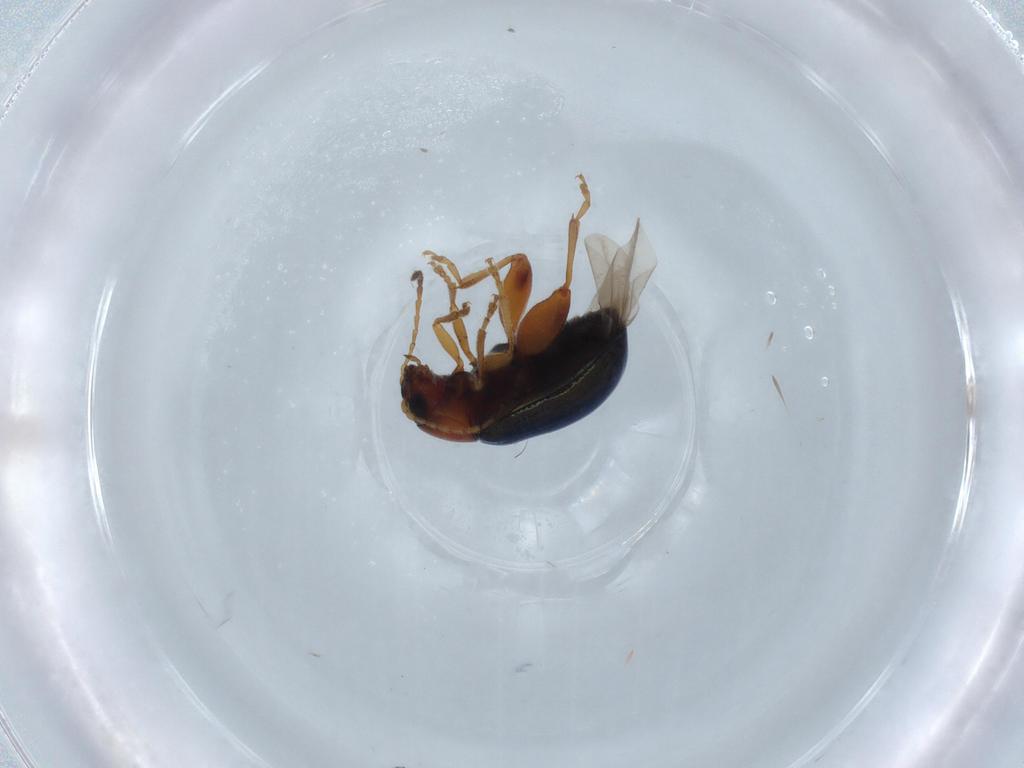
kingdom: Animalia
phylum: Arthropoda
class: Insecta
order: Coleoptera
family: Chrysomelidae
